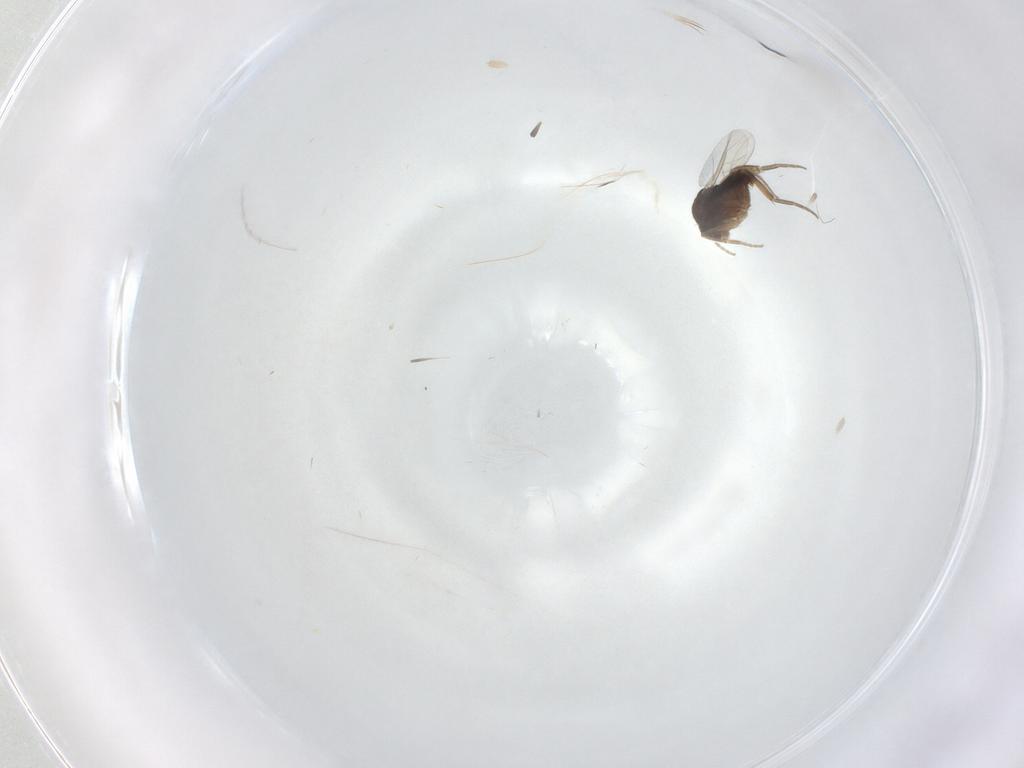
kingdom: Animalia
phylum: Arthropoda
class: Insecta
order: Diptera
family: Phoridae
